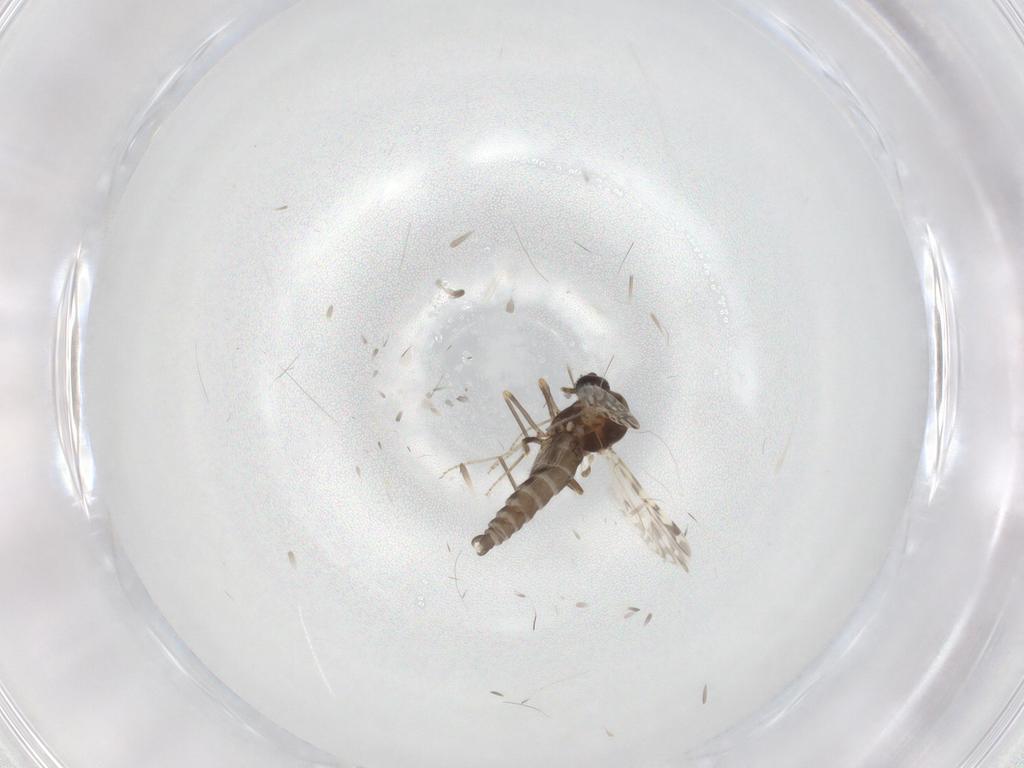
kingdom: Animalia
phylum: Arthropoda
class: Insecta
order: Diptera
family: Ceratopogonidae
